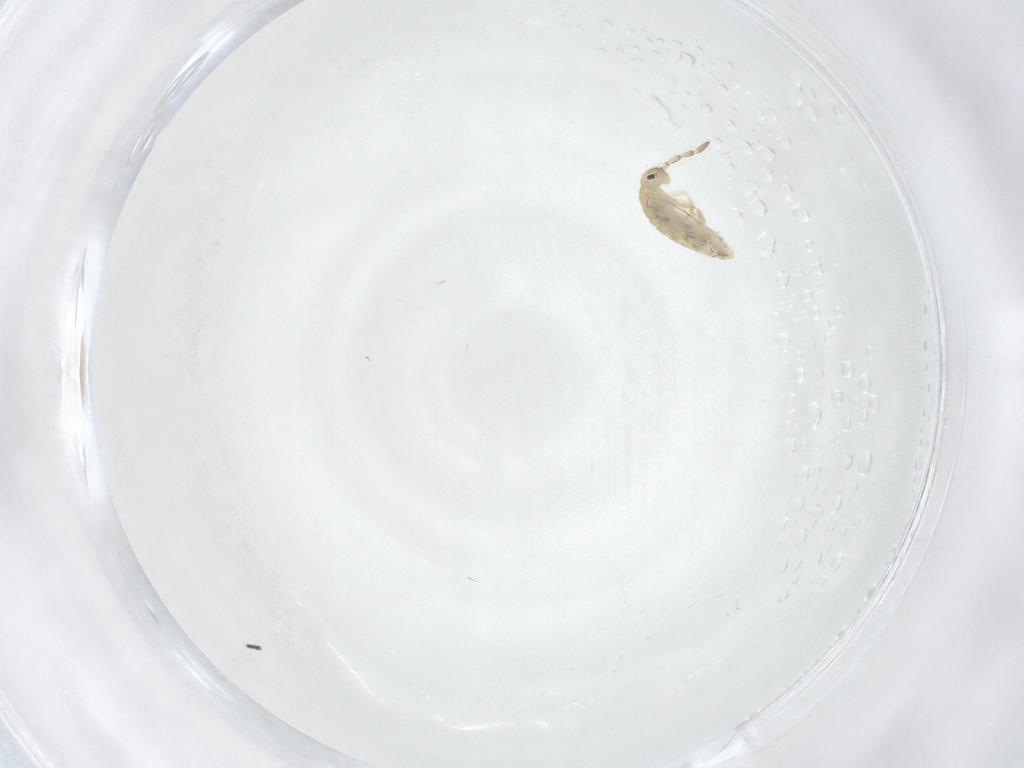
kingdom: Animalia
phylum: Arthropoda
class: Collembola
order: Entomobryomorpha
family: Entomobryidae
